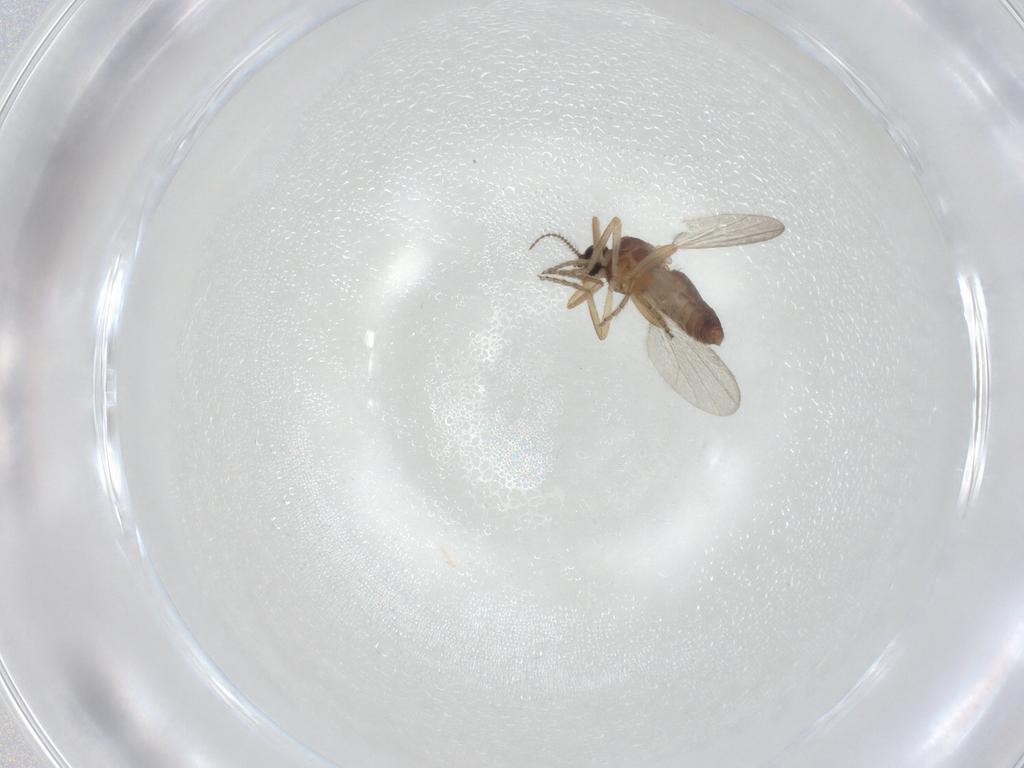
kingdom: Animalia
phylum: Arthropoda
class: Insecta
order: Diptera
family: Ceratopogonidae
